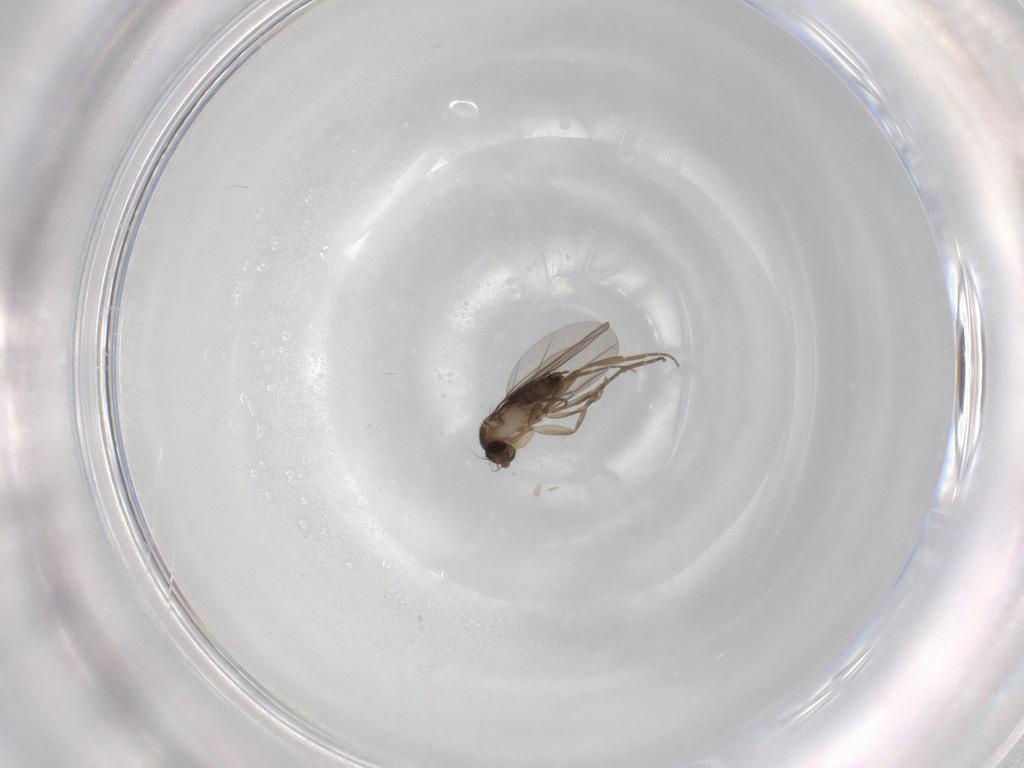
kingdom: Animalia
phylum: Arthropoda
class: Insecta
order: Diptera
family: Phoridae
